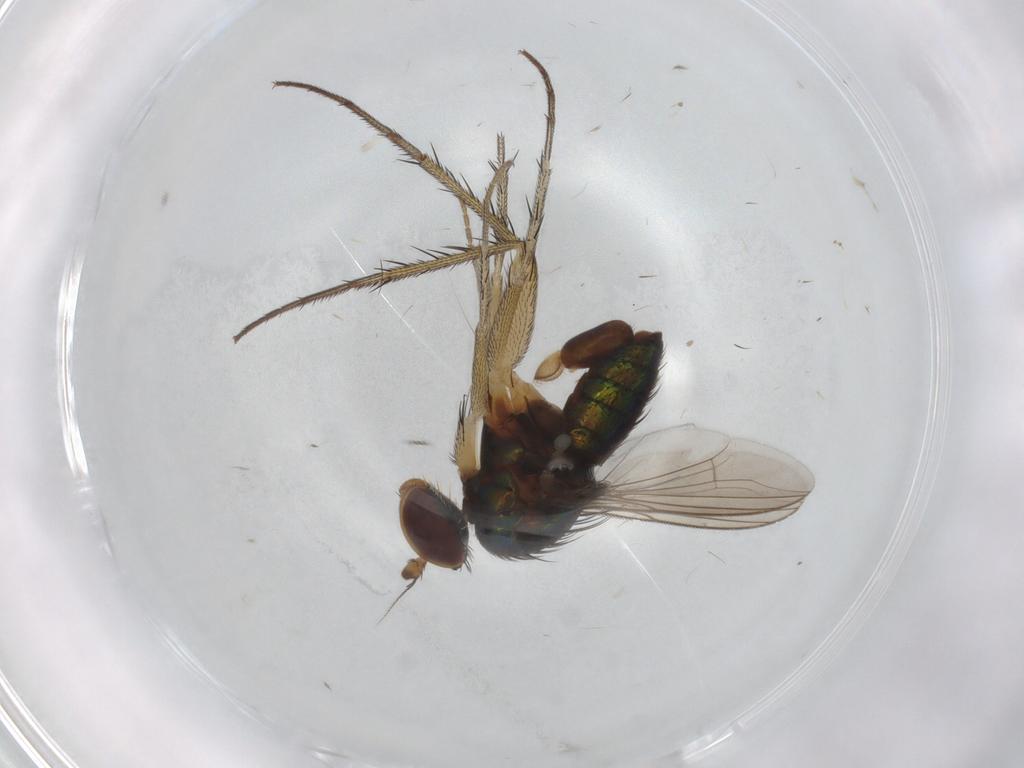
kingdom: Animalia
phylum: Arthropoda
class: Insecta
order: Diptera
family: Dolichopodidae
